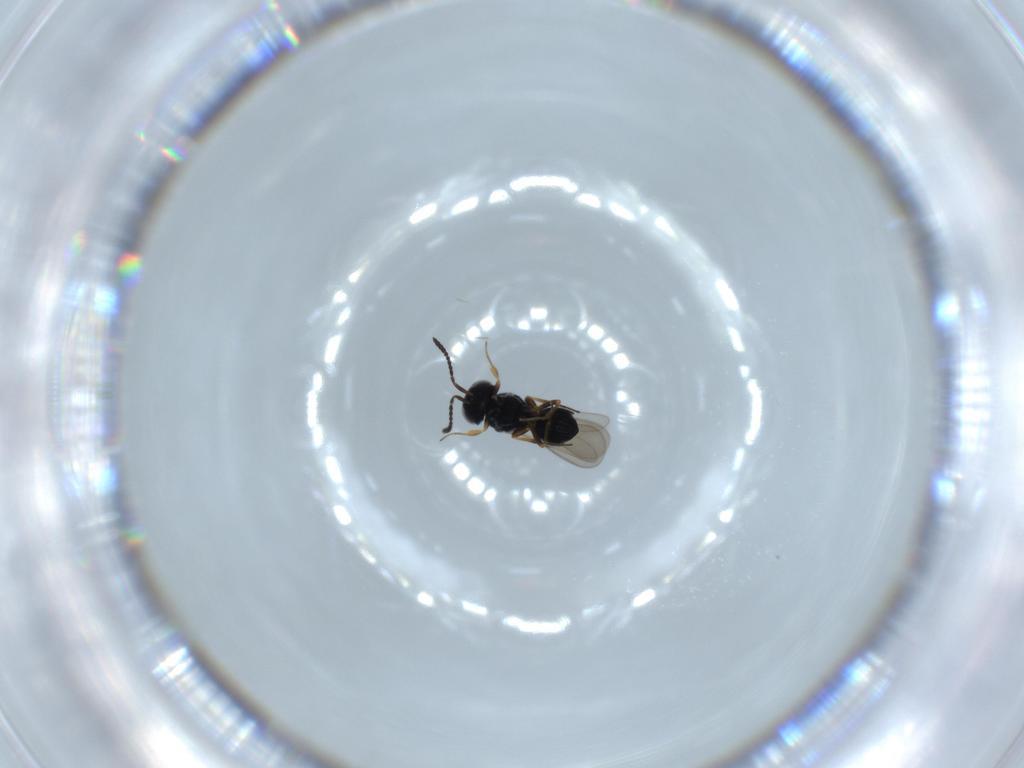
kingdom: Animalia
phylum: Arthropoda
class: Insecta
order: Hymenoptera
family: Scelionidae
